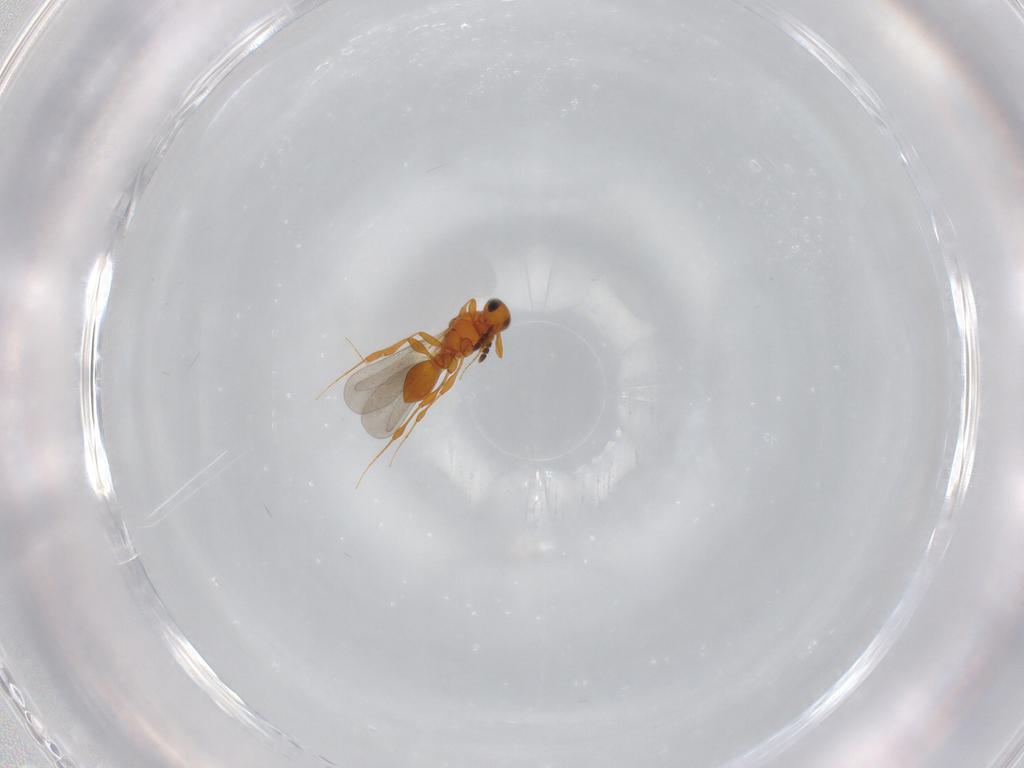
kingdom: Animalia
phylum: Arthropoda
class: Insecta
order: Hymenoptera
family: Platygastridae
